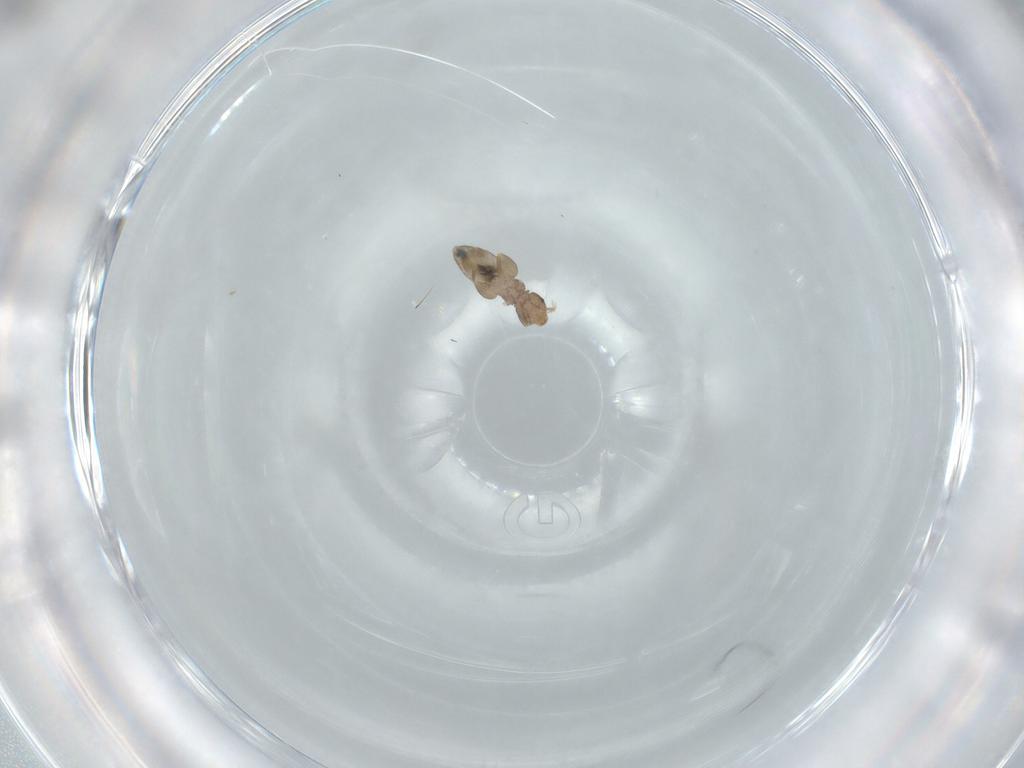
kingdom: Animalia
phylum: Arthropoda
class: Insecta
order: Psocodea
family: Liposcelididae
